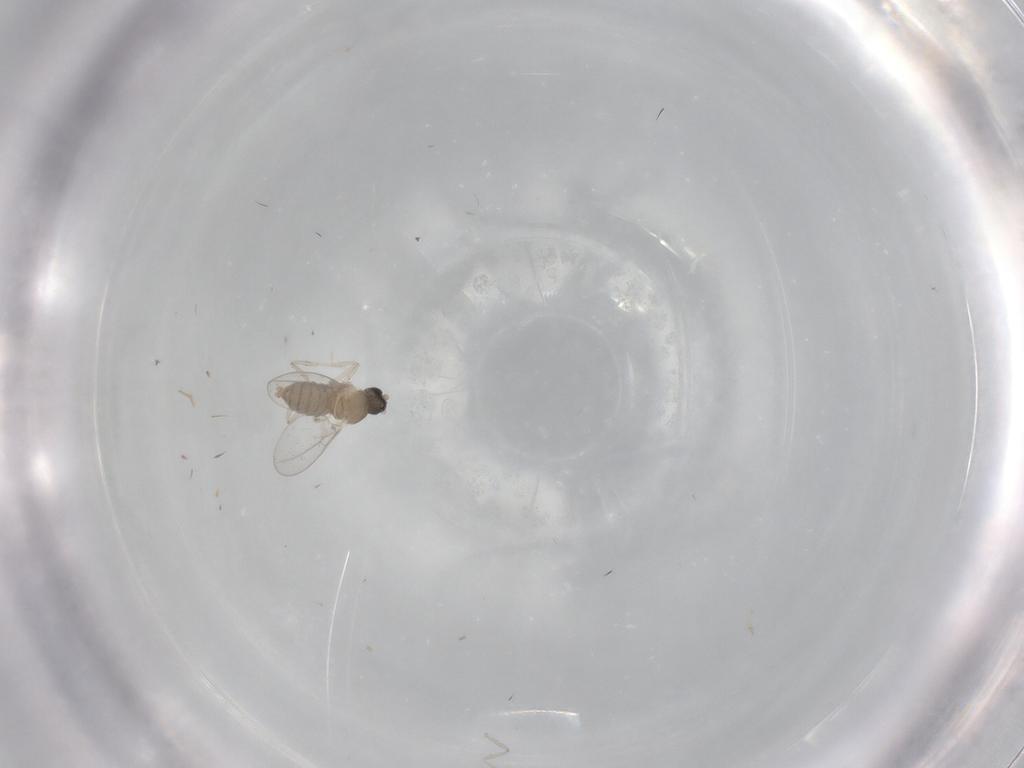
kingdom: Animalia
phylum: Arthropoda
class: Insecta
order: Diptera
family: Cecidomyiidae
